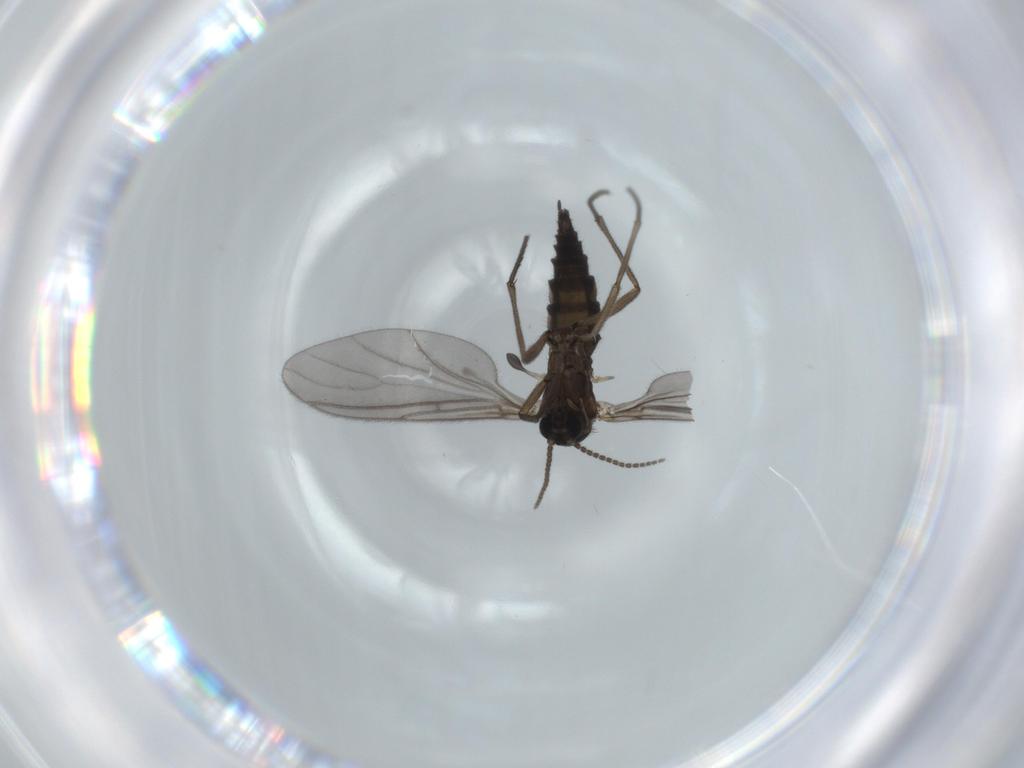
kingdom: Animalia
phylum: Arthropoda
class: Insecta
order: Diptera
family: Sciaridae
